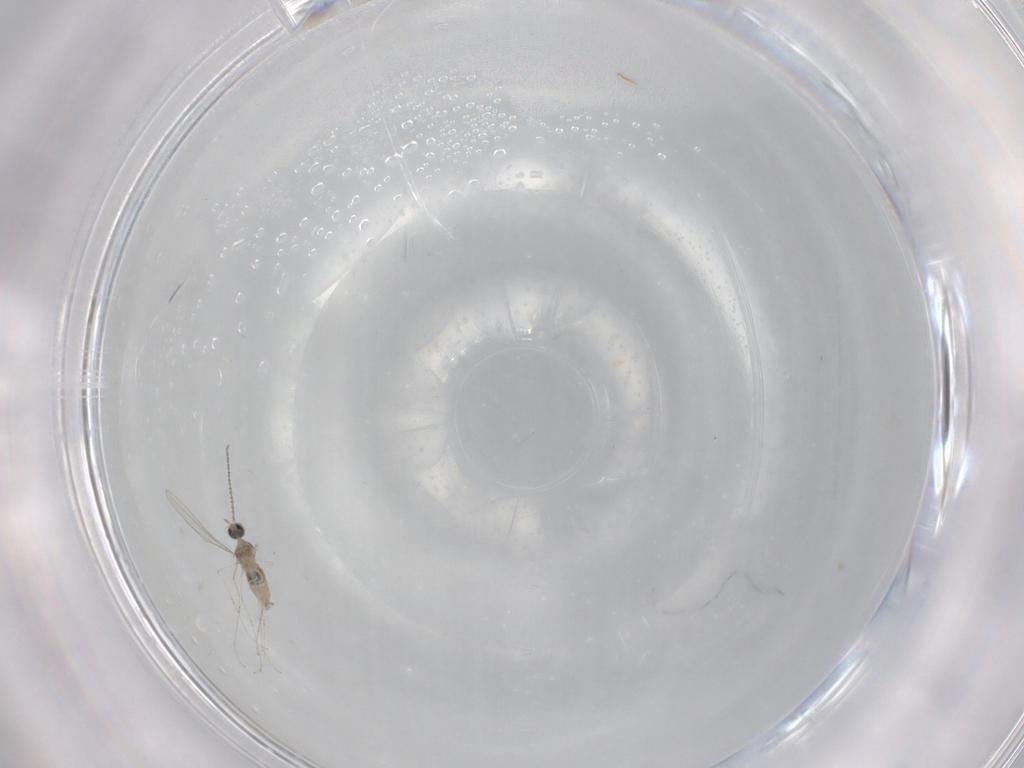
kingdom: Animalia
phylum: Arthropoda
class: Insecta
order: Diptera
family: Cecidomyiidae
